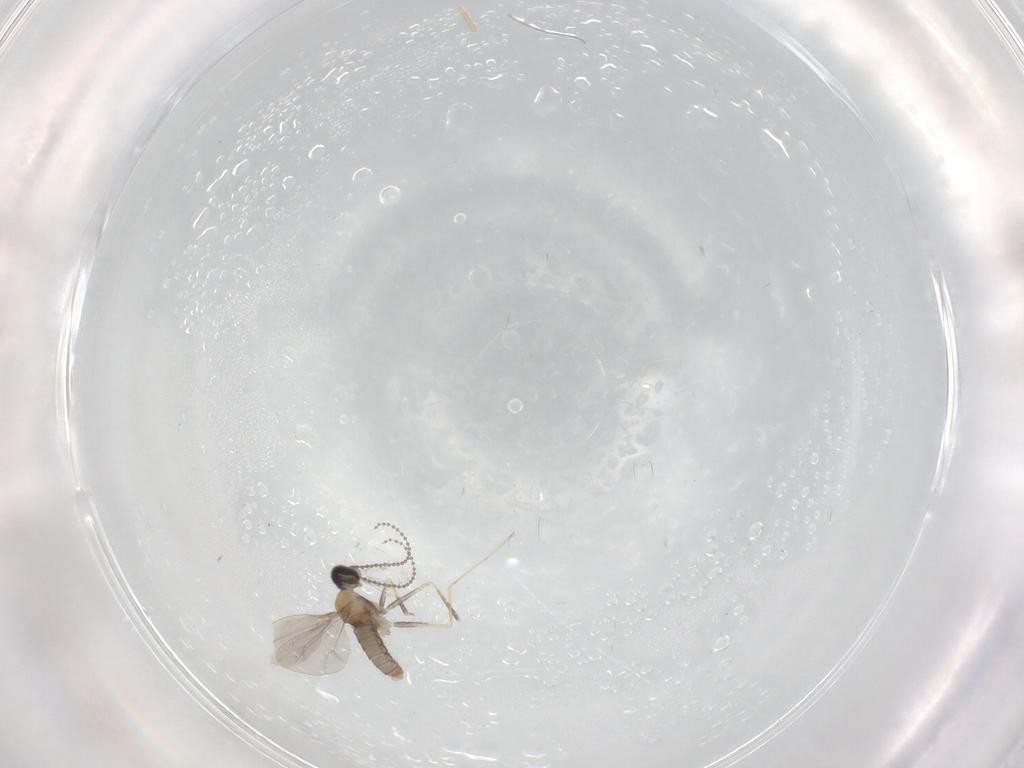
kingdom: Animalia
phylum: Arthropoda
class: Insecta
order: Diptera
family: Cecidomyiidae
